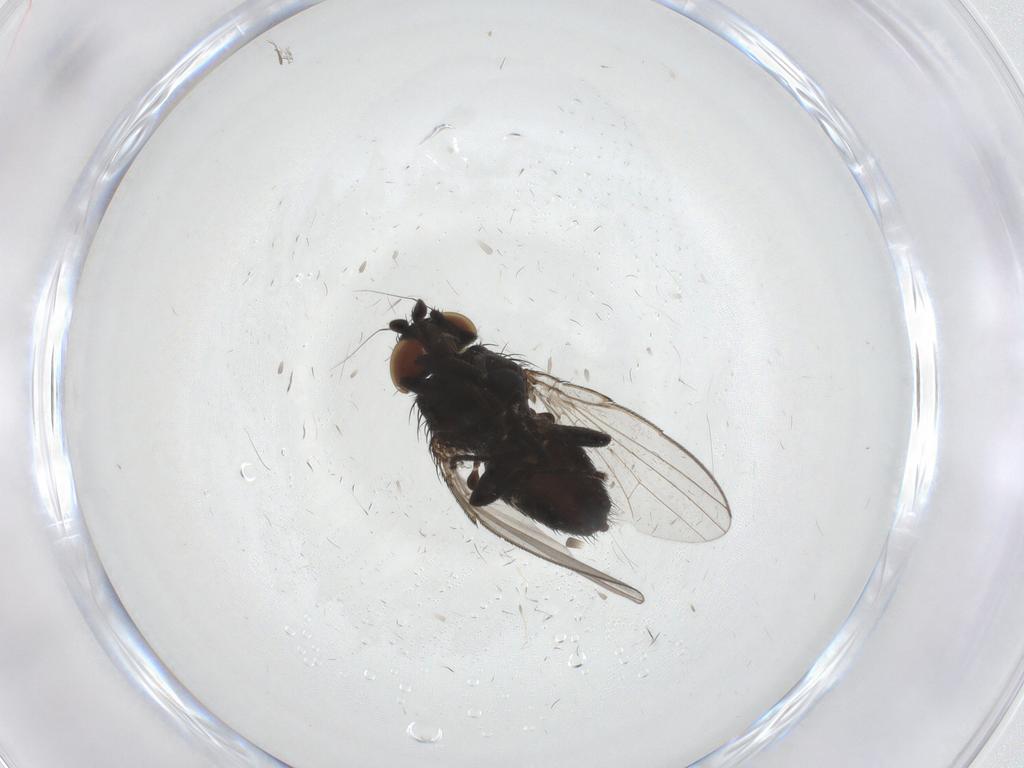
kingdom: Animalia
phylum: Arthropoda
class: Insecta
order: Diptera
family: Milichiidae
